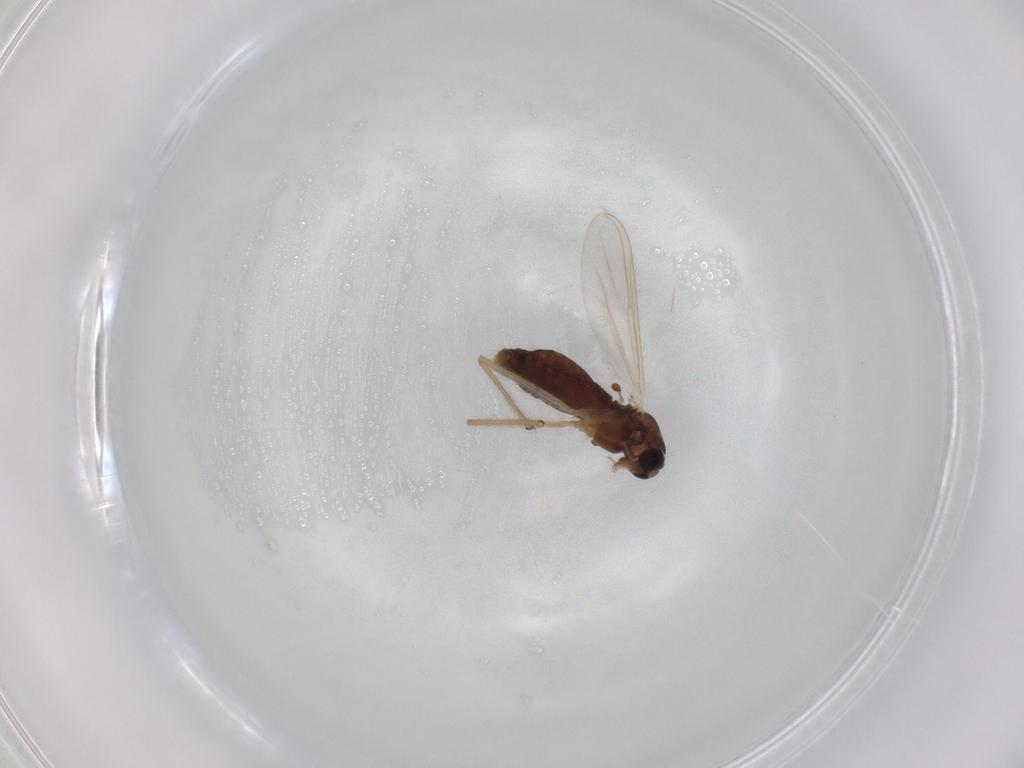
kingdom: Animalia
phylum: Arthropoda
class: Insecta
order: Diptera
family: Chironomidae
